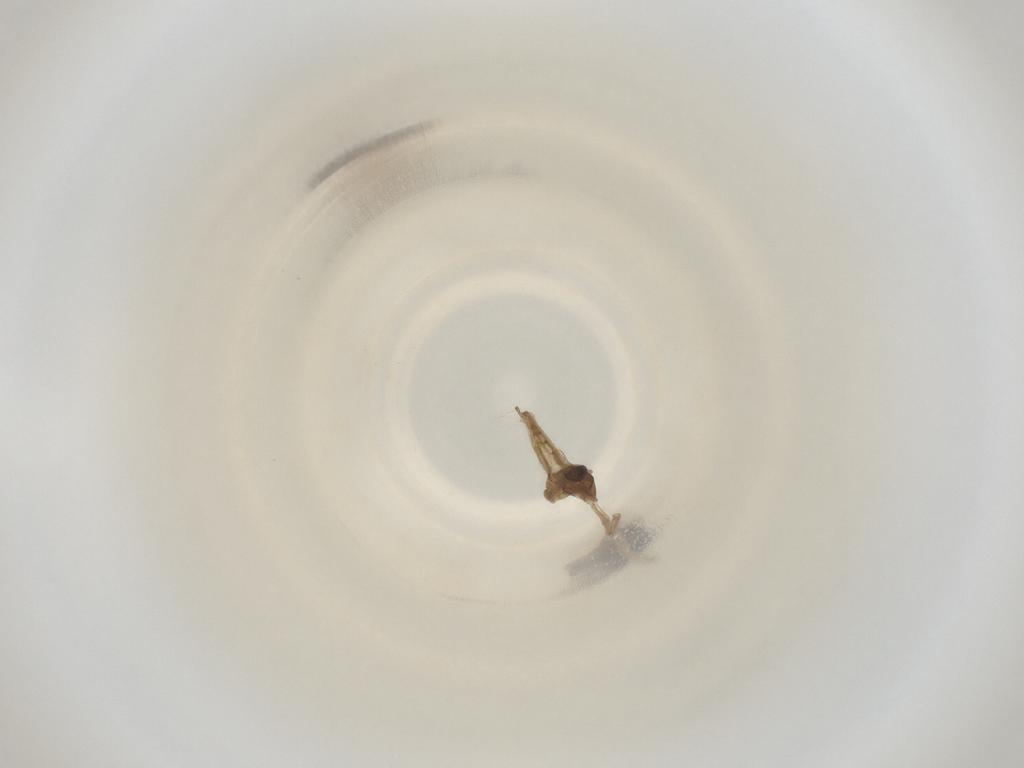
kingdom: Animalia
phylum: Arthropoda
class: Insecta
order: Diptera
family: Cecidomyiidae
